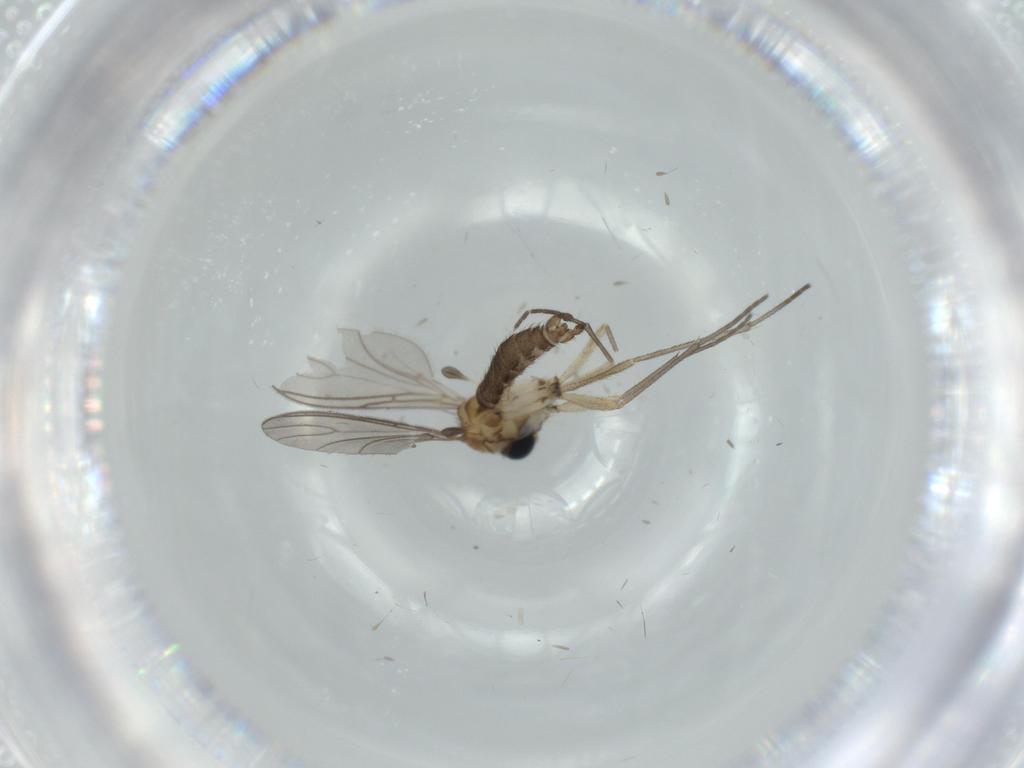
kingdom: Animalia
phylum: Arthropoda
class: Insecta
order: Diptera
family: Sciaridae
